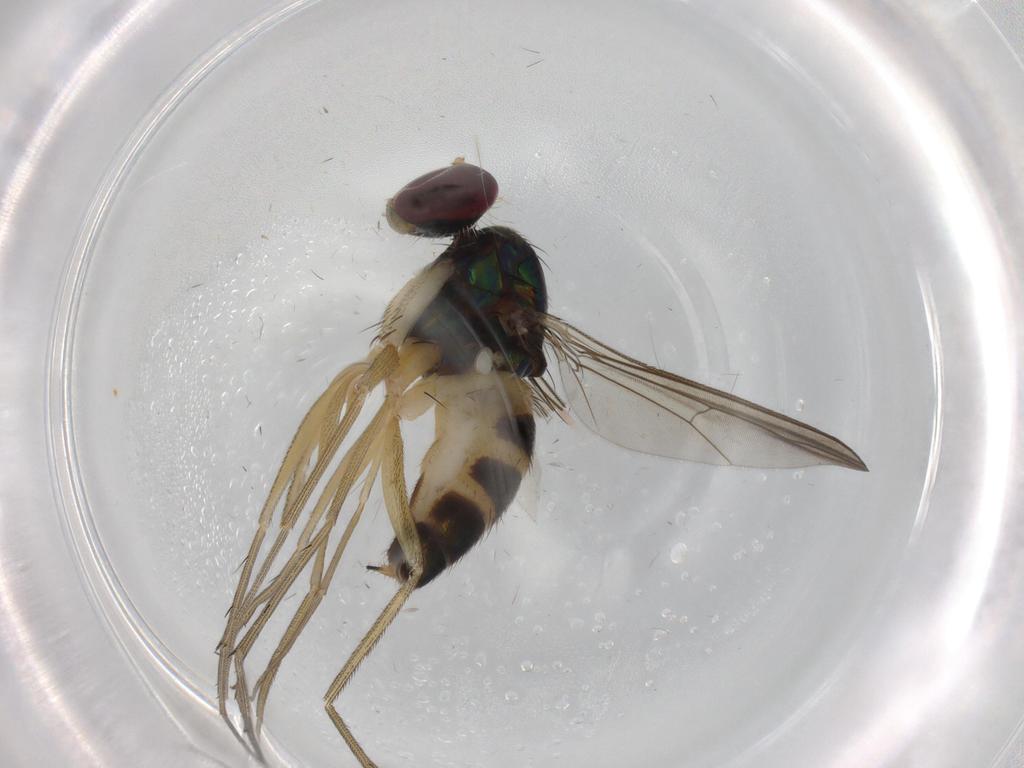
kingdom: Animalia
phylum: Arthropoda
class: Insecta
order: Diptera
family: Dolichopodidae
